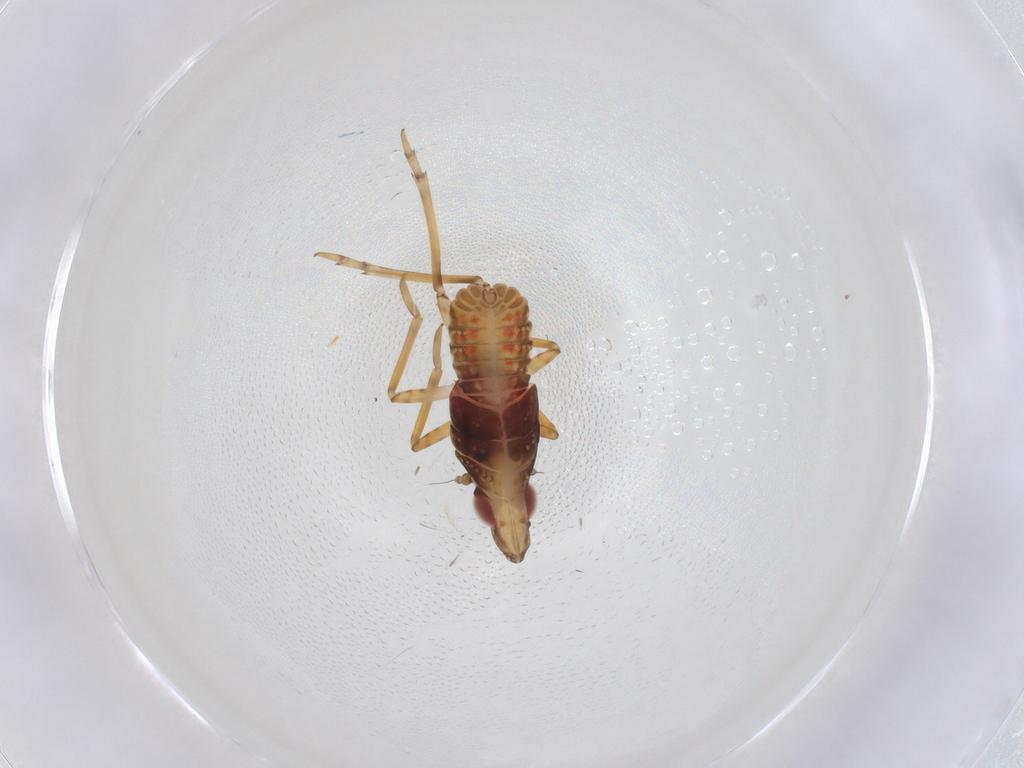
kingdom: Animalia
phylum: Arthropoda
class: Insecta
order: Hemiptera
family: Fulgoroidea_incertae_sedis
